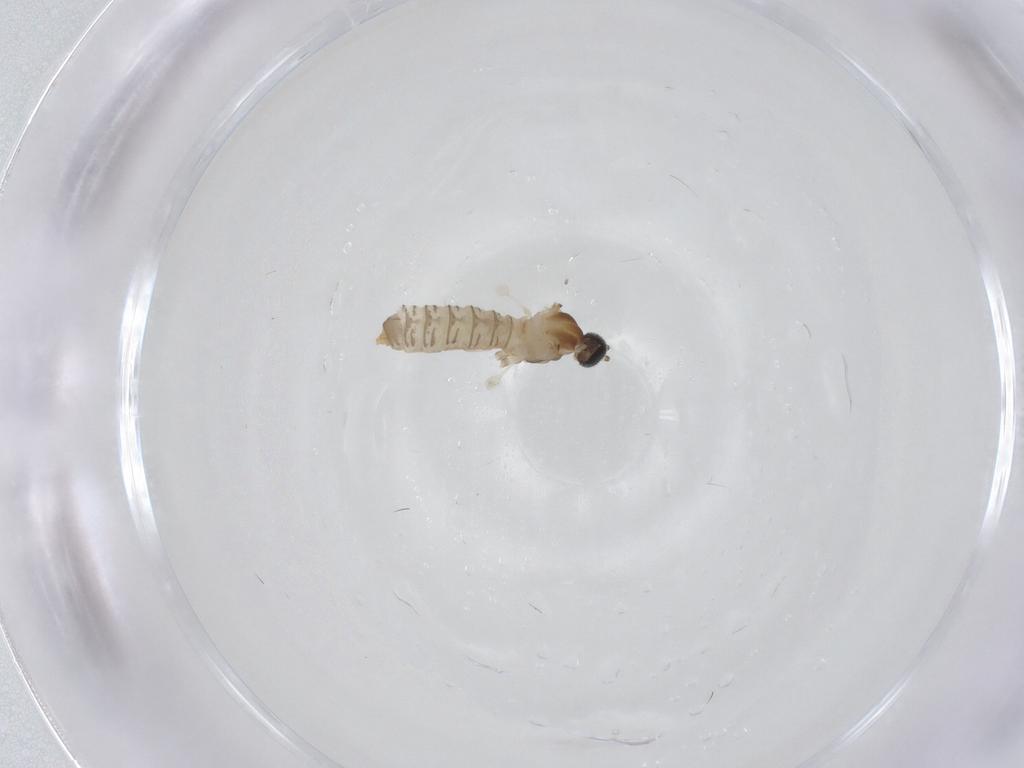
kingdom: Animalia
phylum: Arthropoda
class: Insecta
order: Diptera
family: Cecidomyiidae
